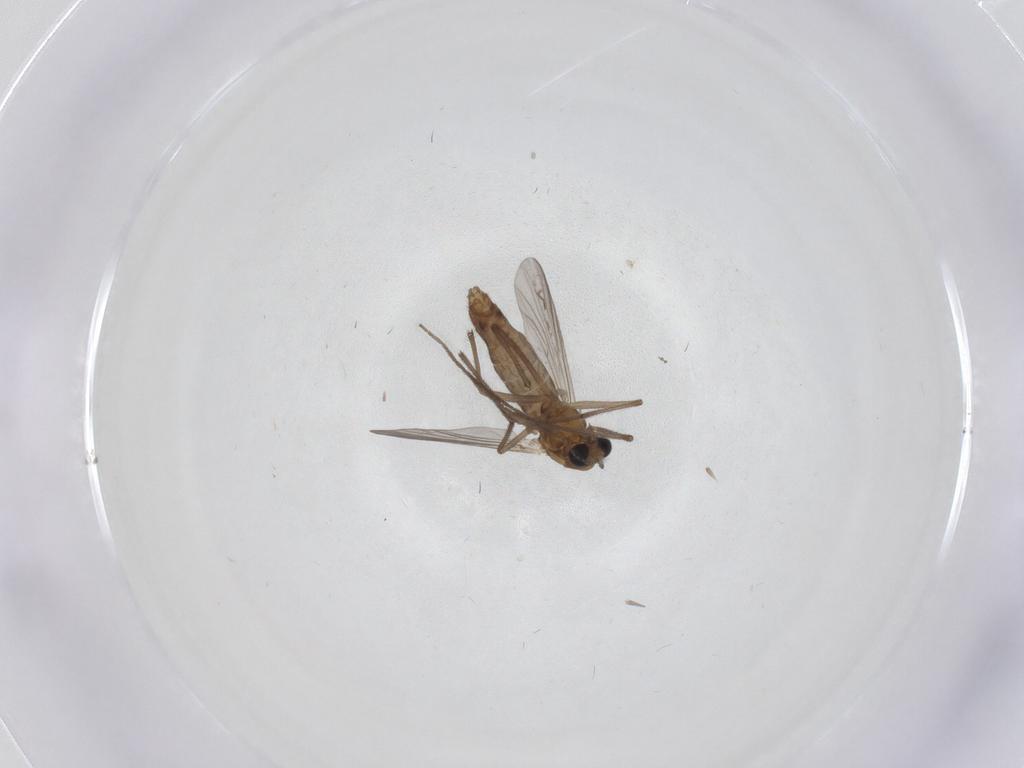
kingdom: Animalia
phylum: Arthropoda
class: Insecta
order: Diptera
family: Chironomidae
